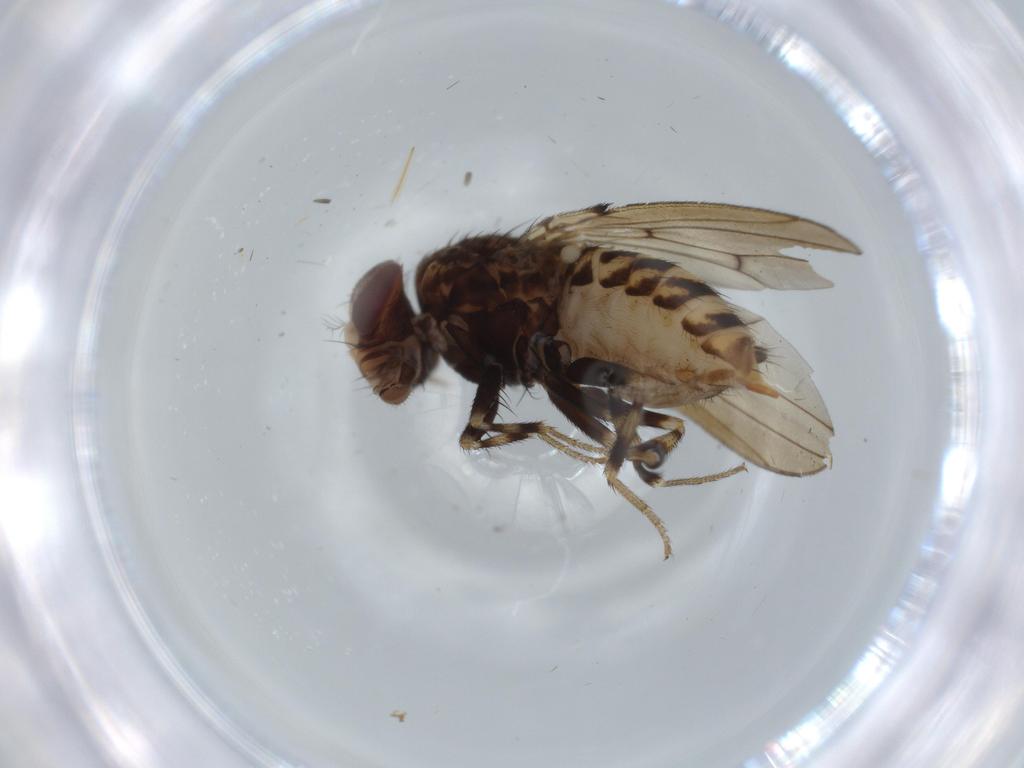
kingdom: Animalia
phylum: Arthropoda
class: Insecta
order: Diptera
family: Drosophilidae
